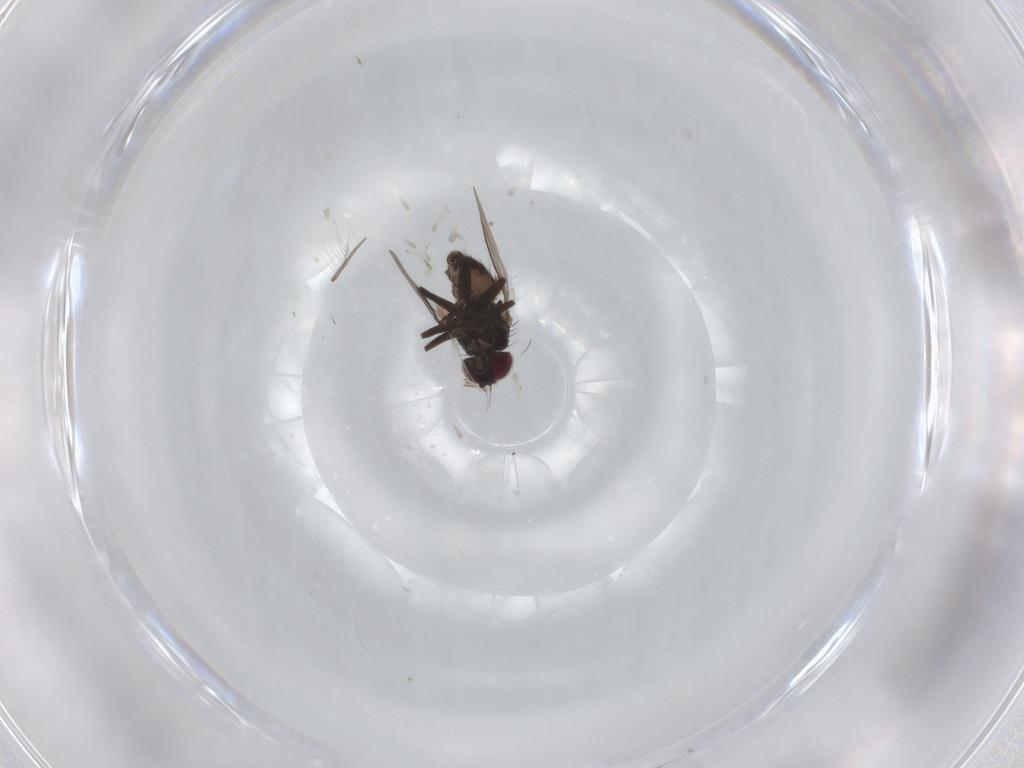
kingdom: Animalia
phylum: Arthropoda
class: Insecta
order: Diptera
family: Chironomidae
